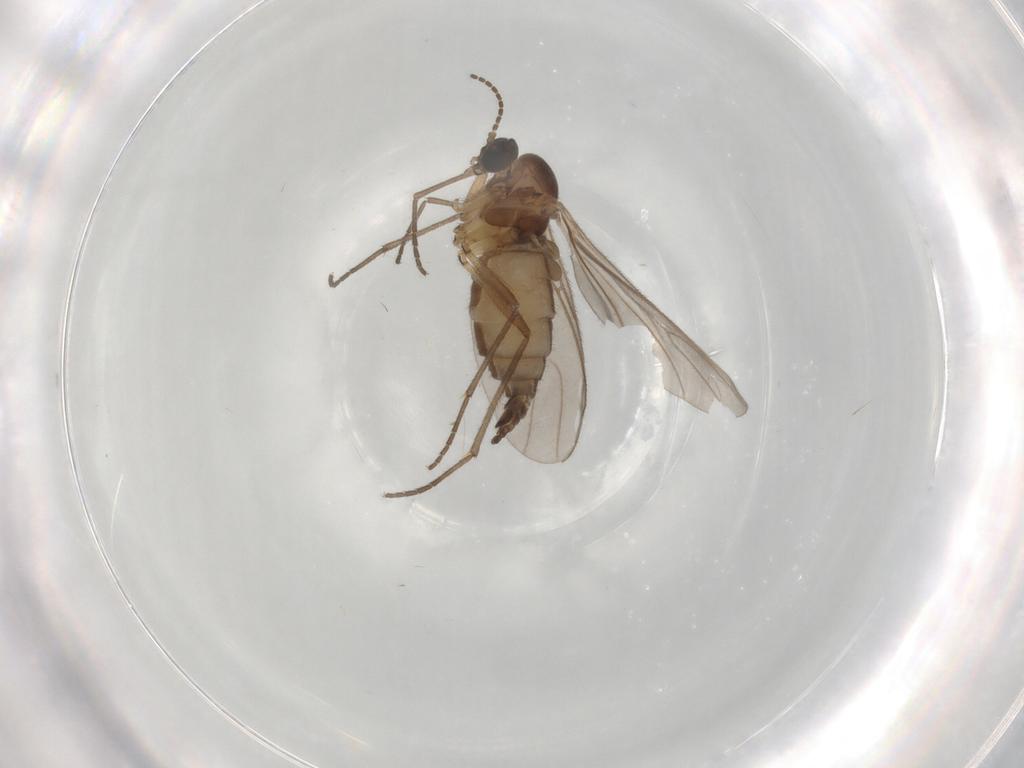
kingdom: Animalia
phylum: Arthropoda
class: Insecta
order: Diptera
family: Sciaridae
